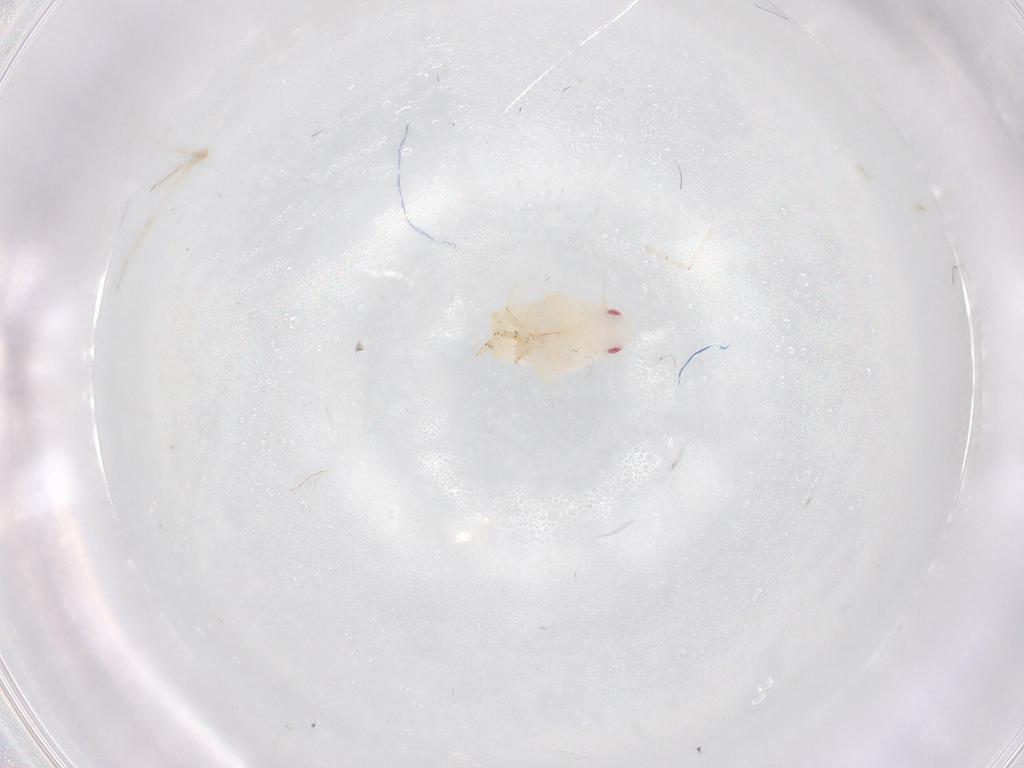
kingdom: Animalia
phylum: Arthropoda
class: Insecta
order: Hemiptera
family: Flatidae
